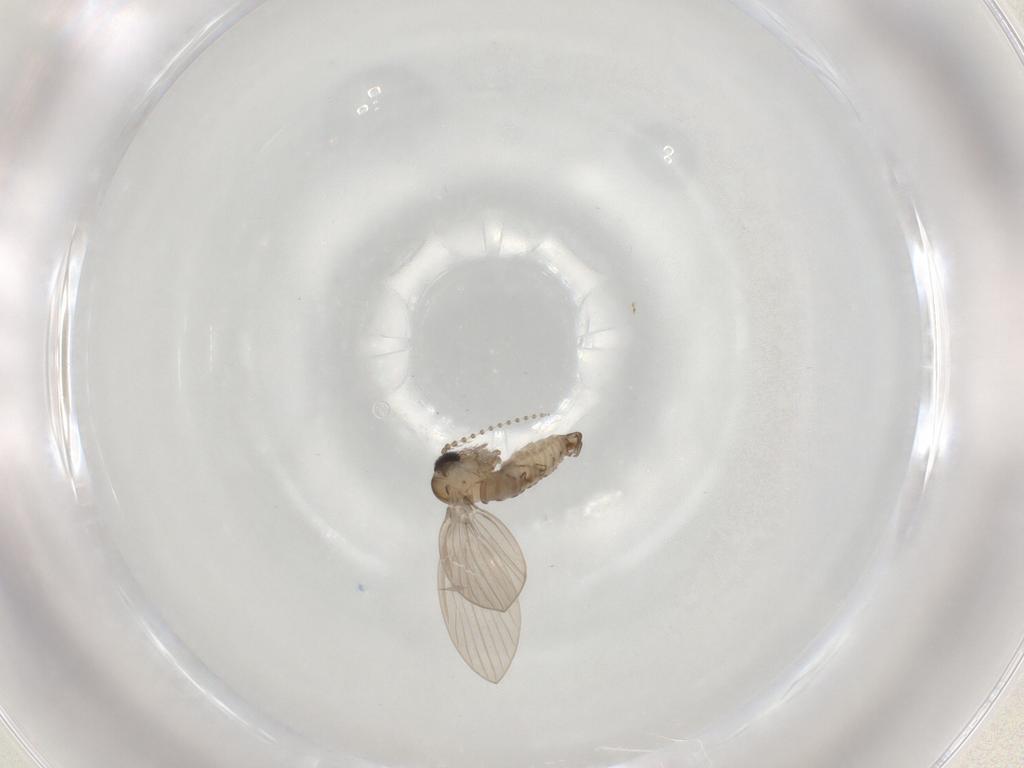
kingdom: Animalia
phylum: Arthropoda
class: Insecta
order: Diptera
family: Psychodidae
